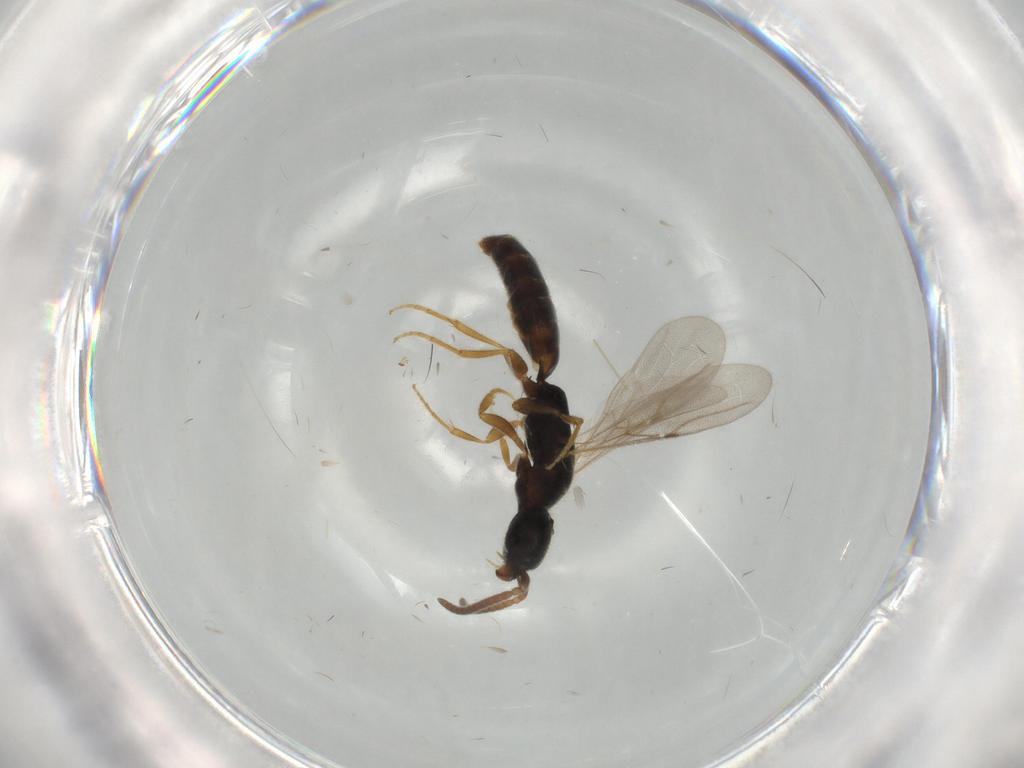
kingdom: Animalia
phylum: Arthropoda
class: Insecta
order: Hymenoptera
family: Bethylidae
